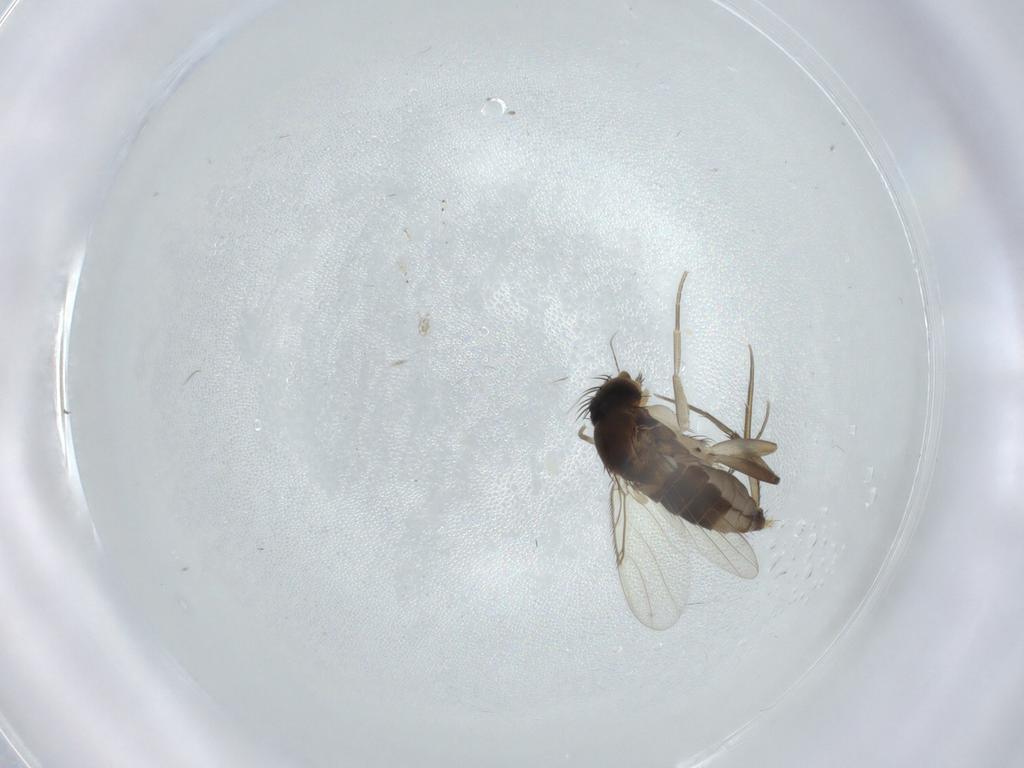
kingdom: Animalia
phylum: Arthropoda
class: Insecta
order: Diptera
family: Cecidomyiidae
